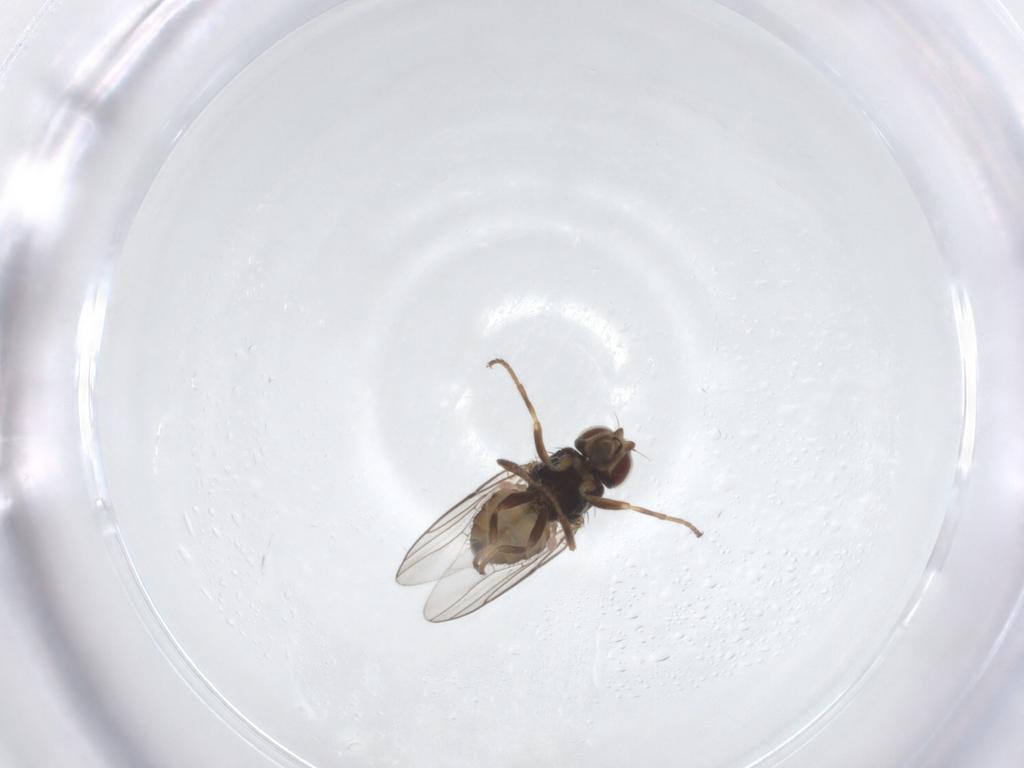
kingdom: Animalia
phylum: Arthropoda
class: Insecta
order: Diptera
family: Chloropidae
